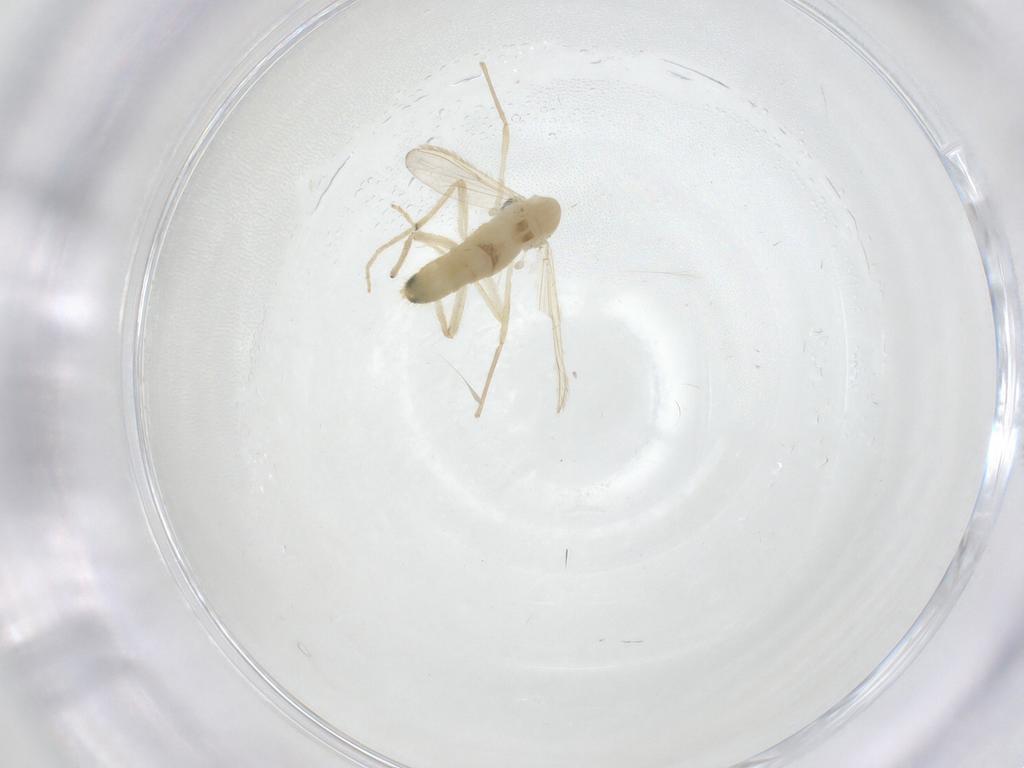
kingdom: Animalia
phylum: Arthropoda
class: Insecta
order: Diptera
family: Chironomidae
